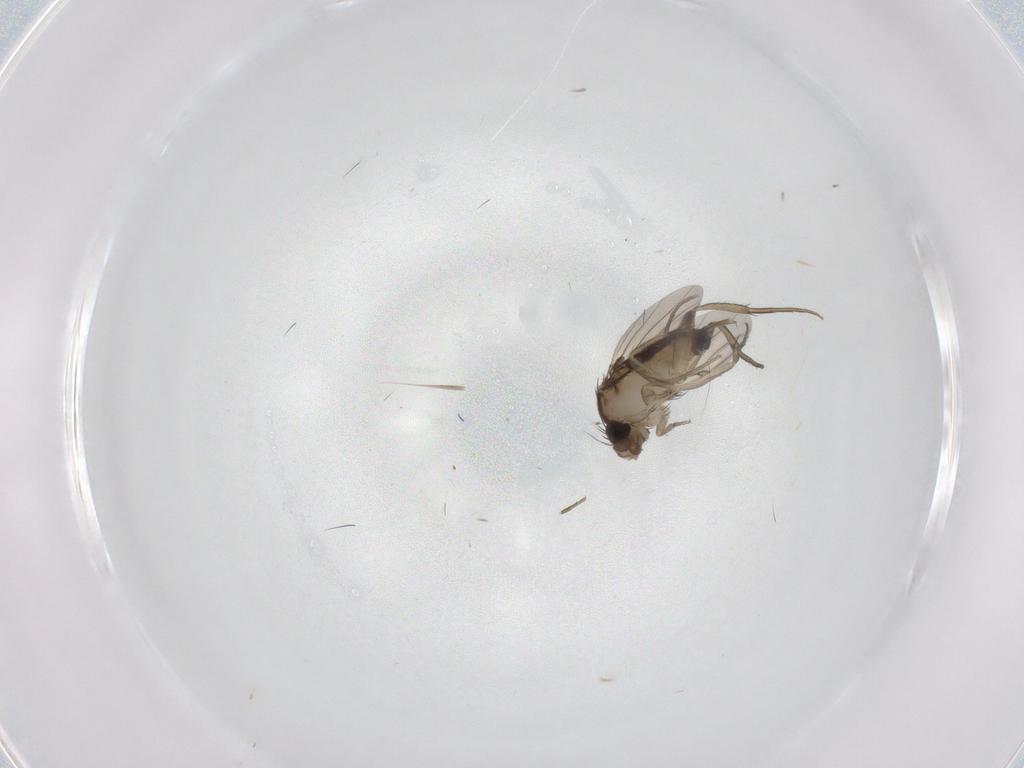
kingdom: Animalia
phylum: Arthropoda
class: Insecta
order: Diptera
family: Phoridae
